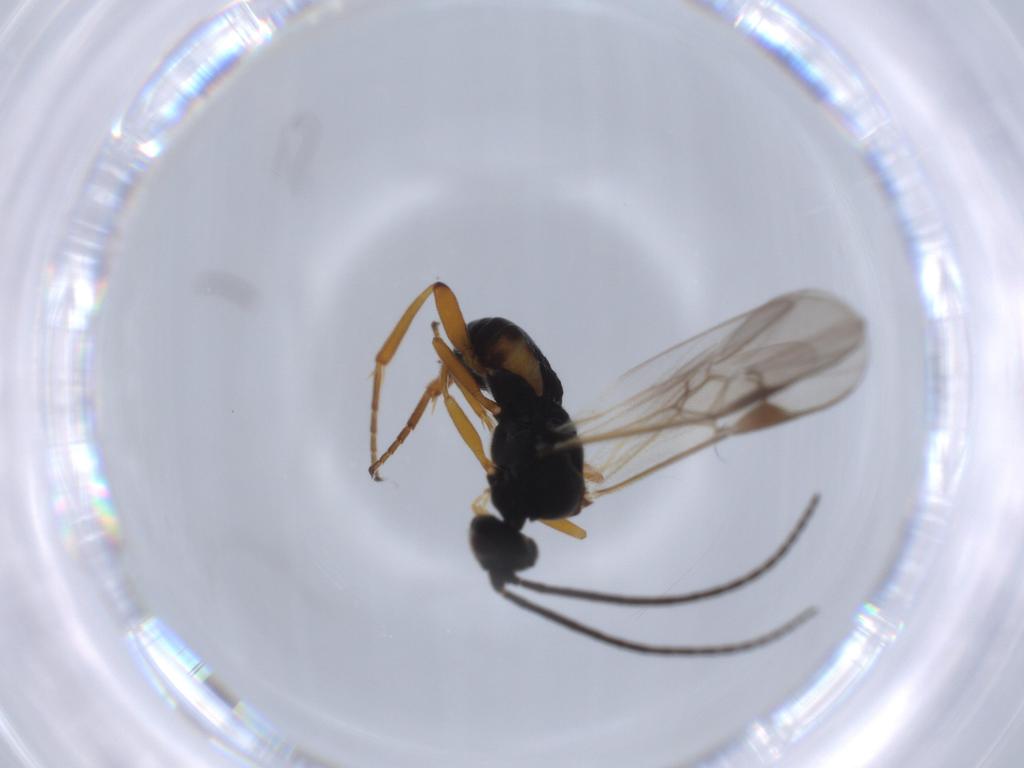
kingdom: Animalia
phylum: Arthropoda
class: Insecta
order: Hymenoptera
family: Braconidae
